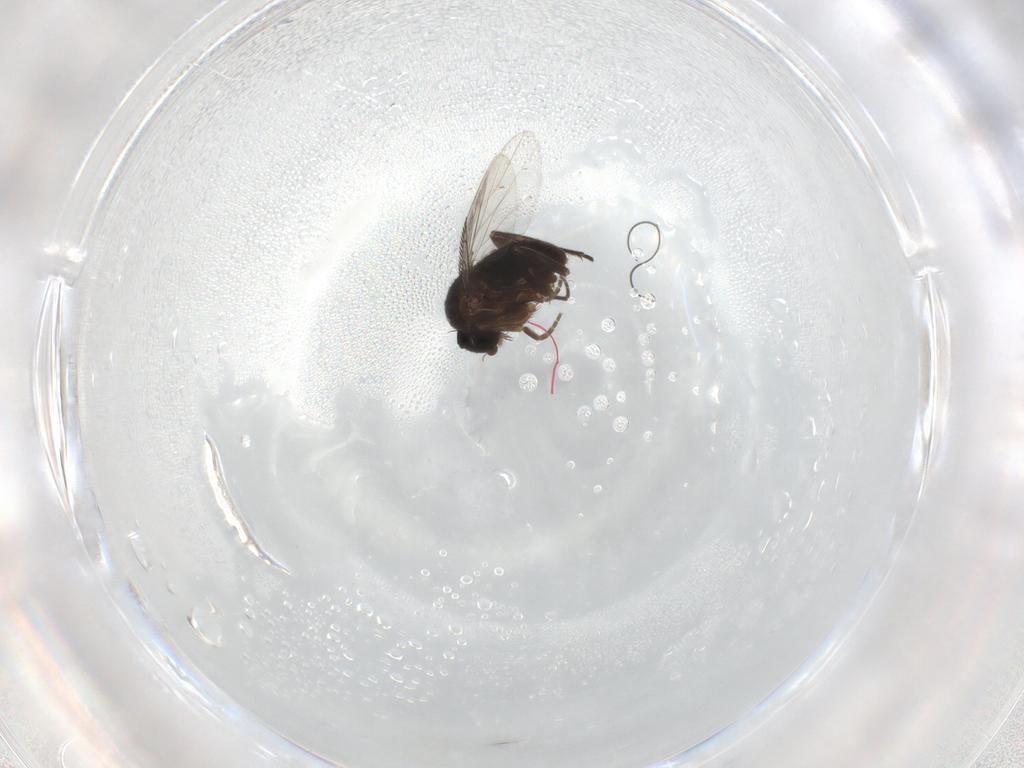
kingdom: Animalia
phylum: Arthropoda
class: Insecta
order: Diptera
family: Phoridae
